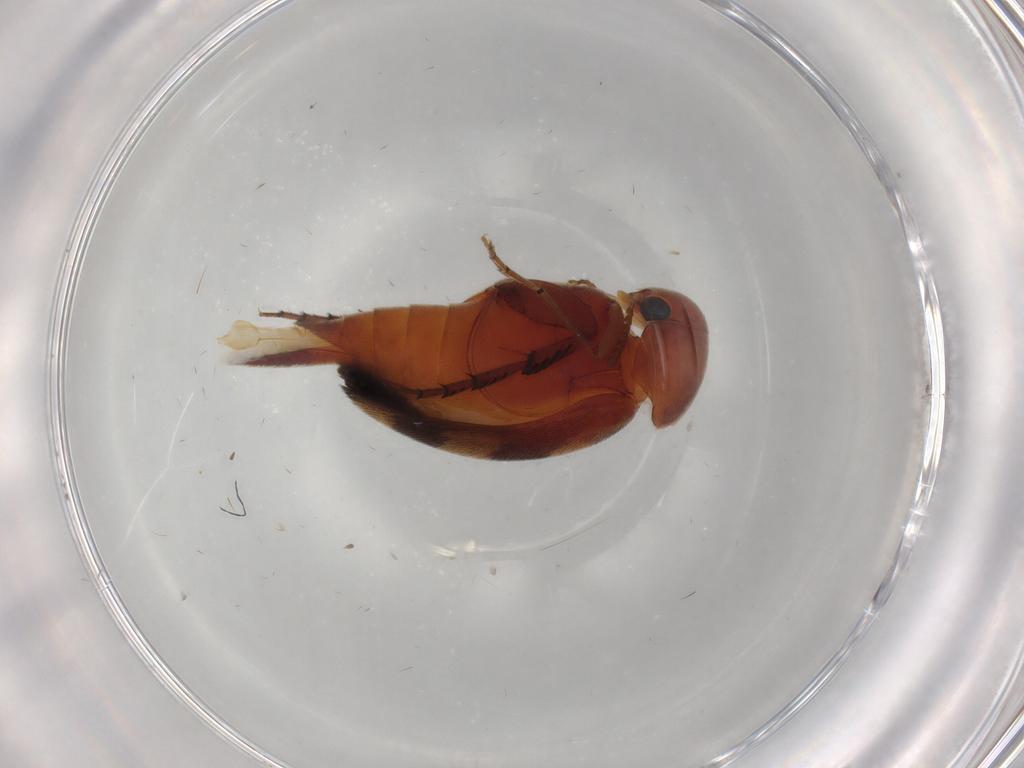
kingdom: Animalia
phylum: Arthropoda
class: Insecta
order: Coleoptera
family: Mordellidae
